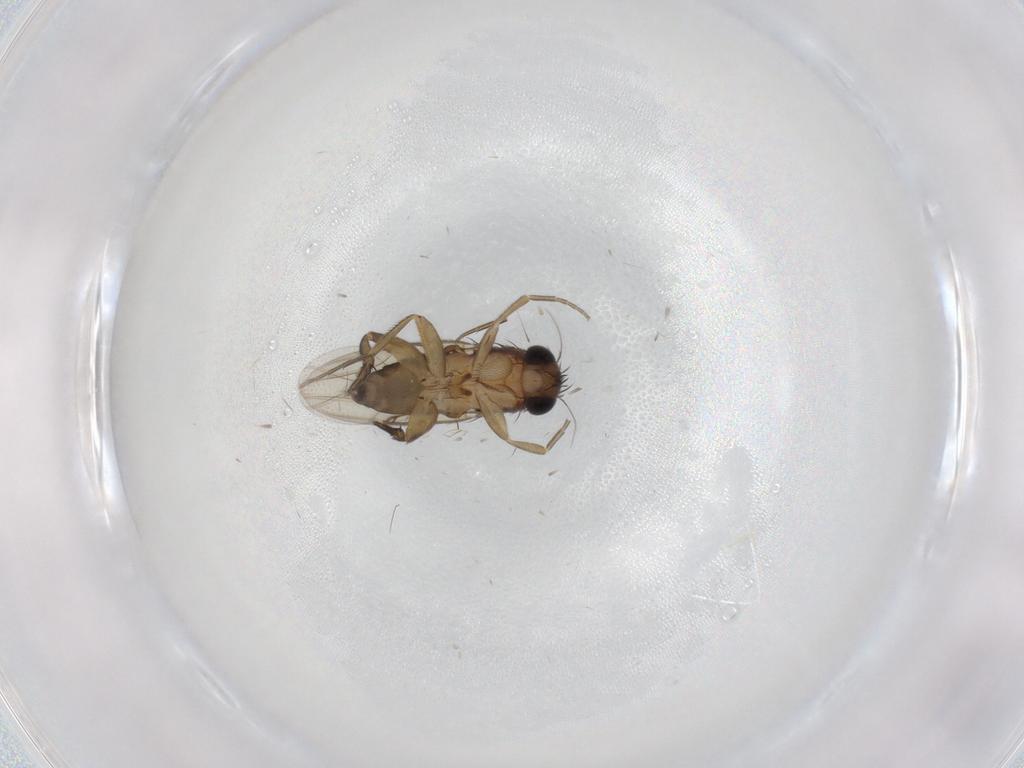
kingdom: Animalia
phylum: Arthropoda
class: Insecta
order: Diptera
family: Phoridae
